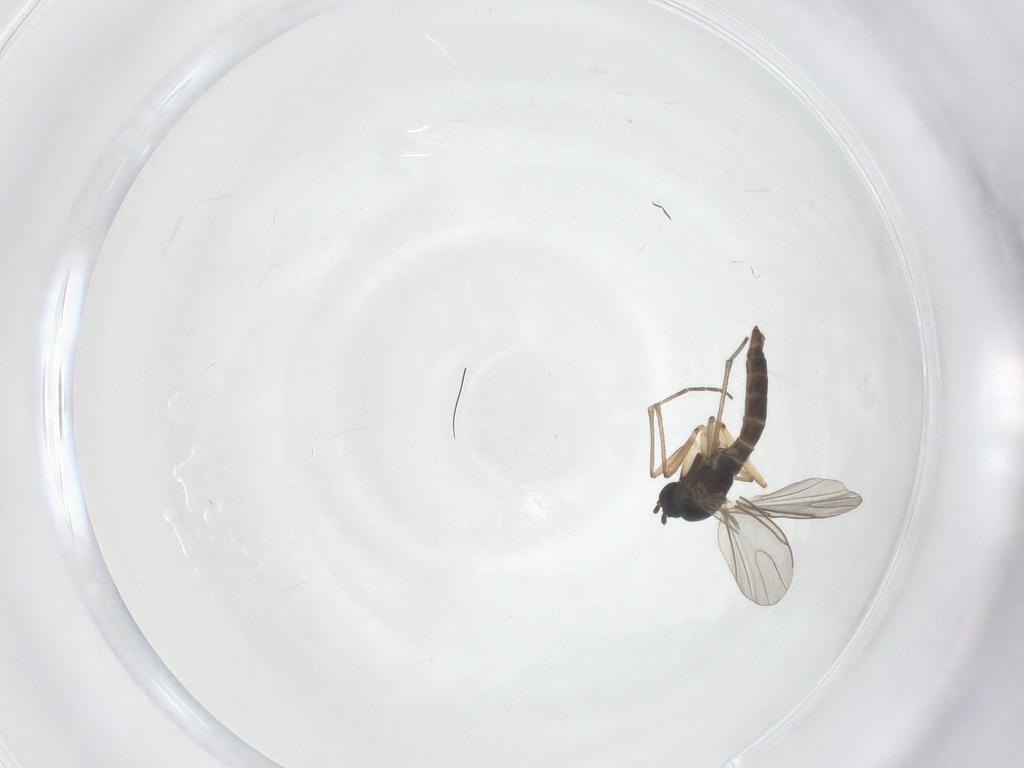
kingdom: Animalia
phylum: Arthropoda
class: Insecta
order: Diptera
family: Sciaridae
